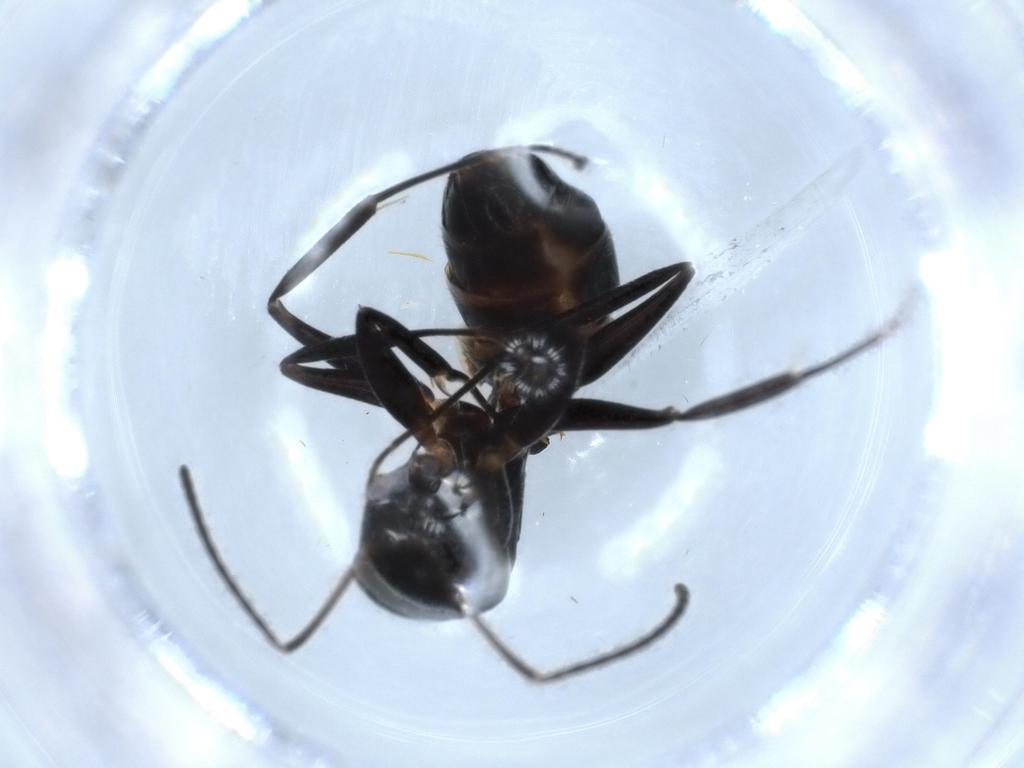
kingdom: Animalia
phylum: Arthropoda
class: Insecta
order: Hymenoptera
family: Formicidae
